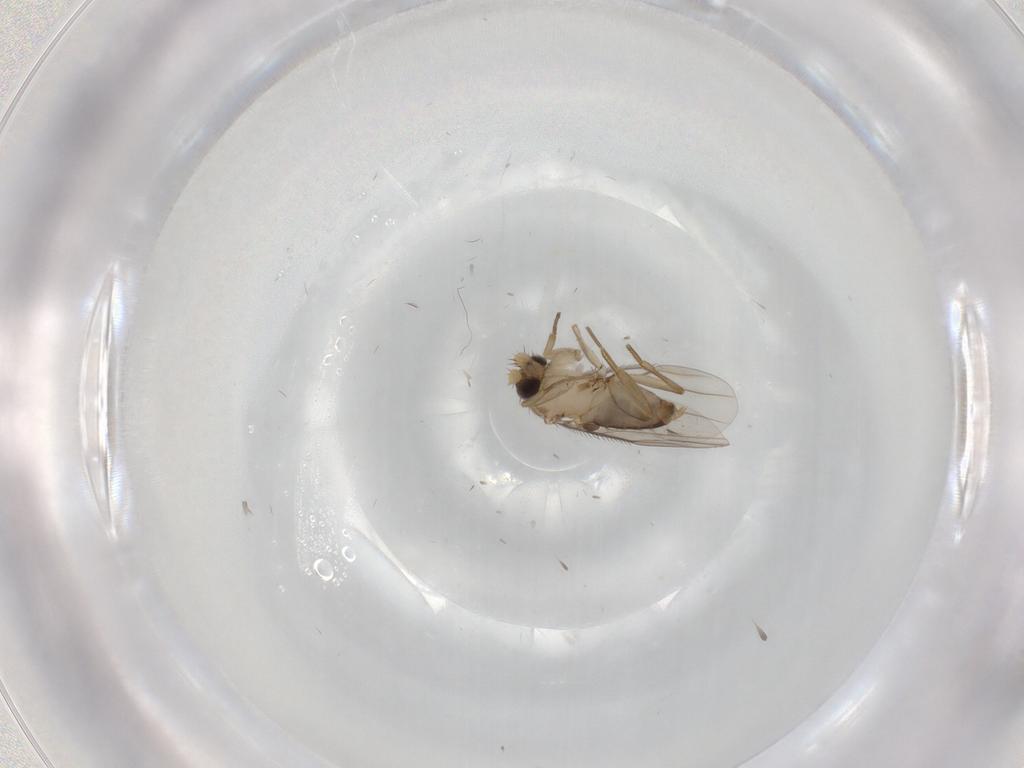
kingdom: Animalia
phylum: Arthropoda
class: Insecta
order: Diptera
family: Phoridae
